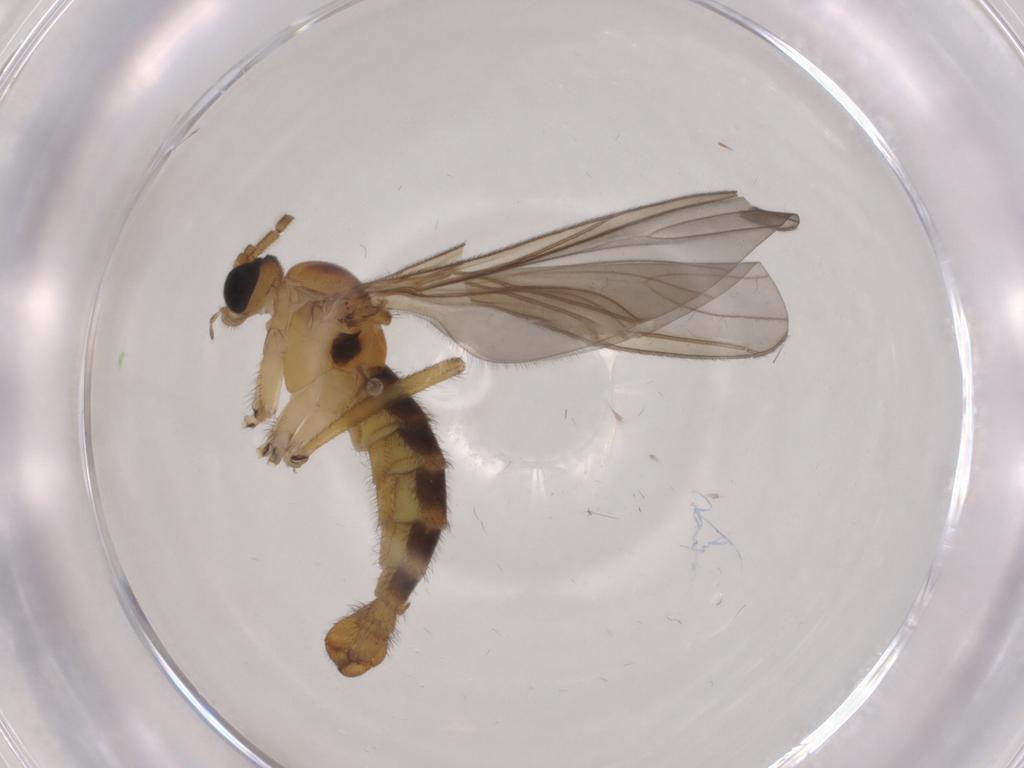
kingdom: Animalia
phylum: Arthropoda
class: Insecta
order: Diptera
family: Sciaridae
